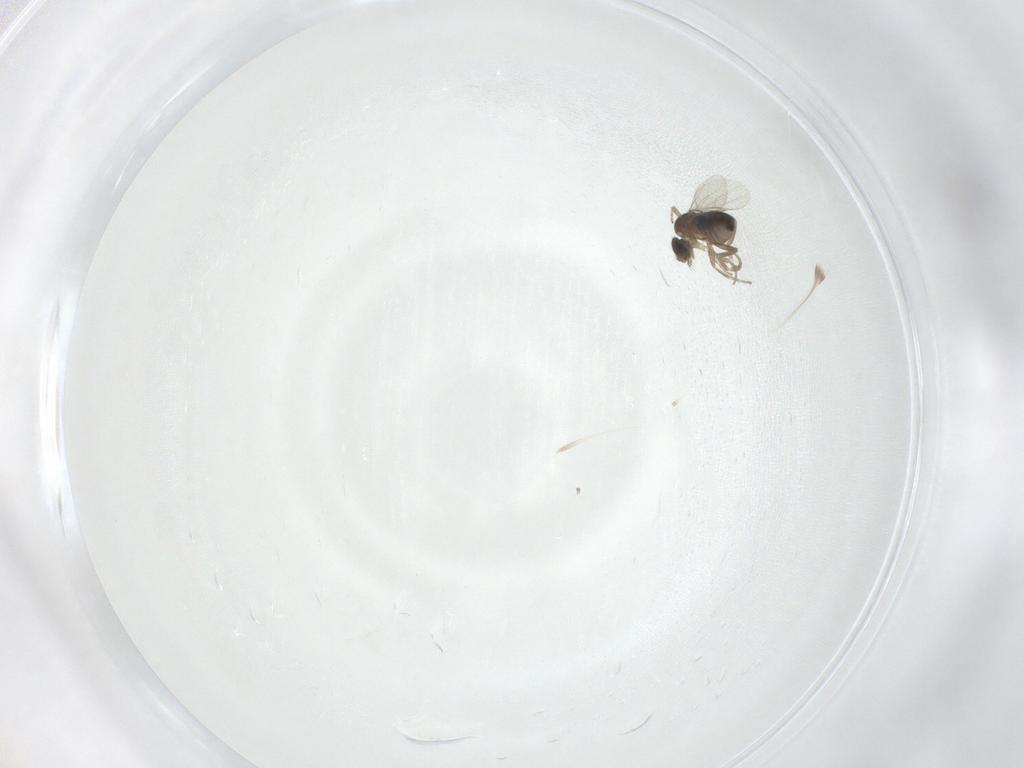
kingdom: Animalia
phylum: Arthropoda
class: Insecta
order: Diptera
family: Phoridae
